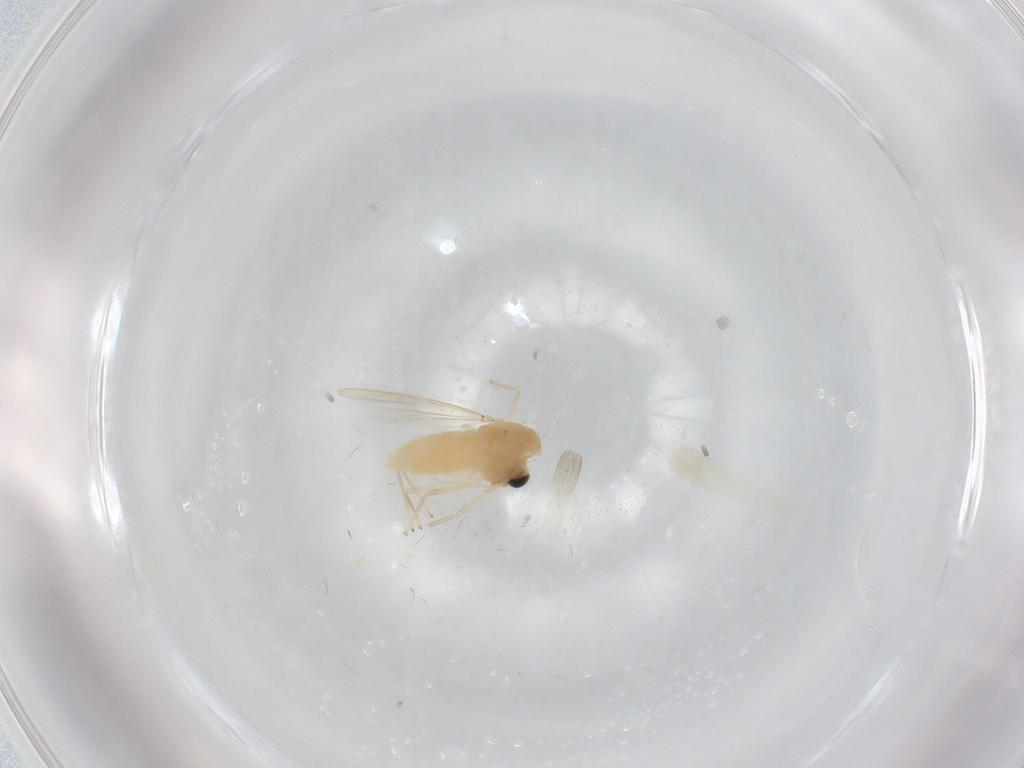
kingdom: Animalia
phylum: Arthropoda
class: Insecta
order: Diptera
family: Chironomidae
